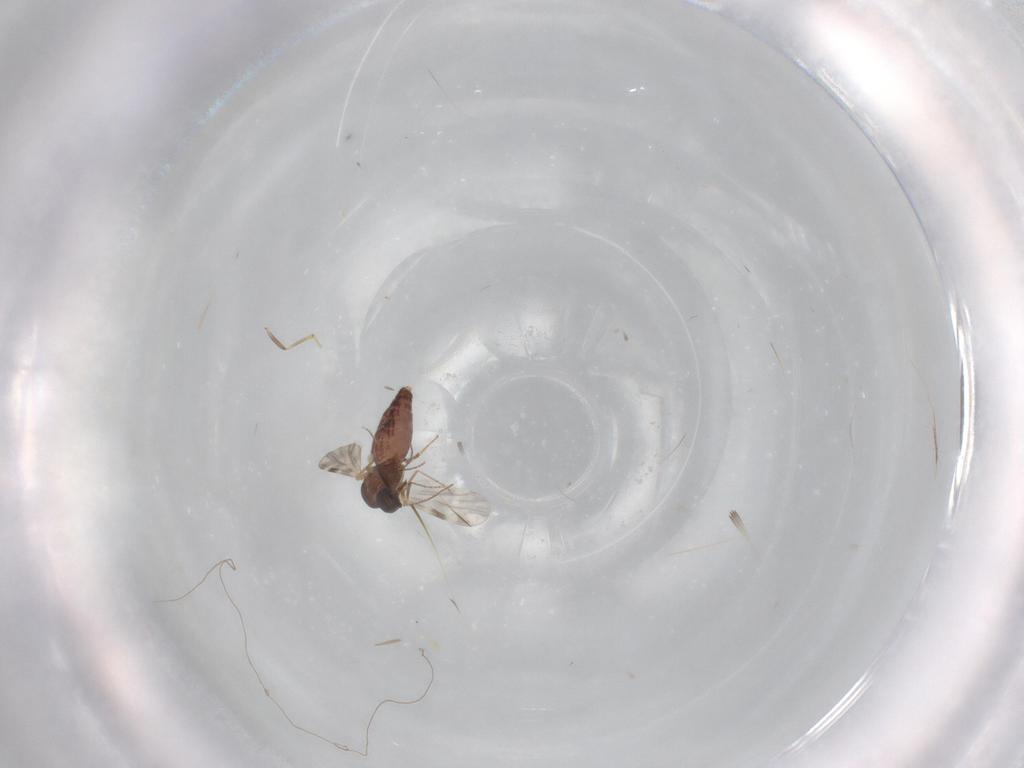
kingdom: Animalia
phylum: Arthropoda
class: Insecta
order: Diptera
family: Ceratopogonidae
